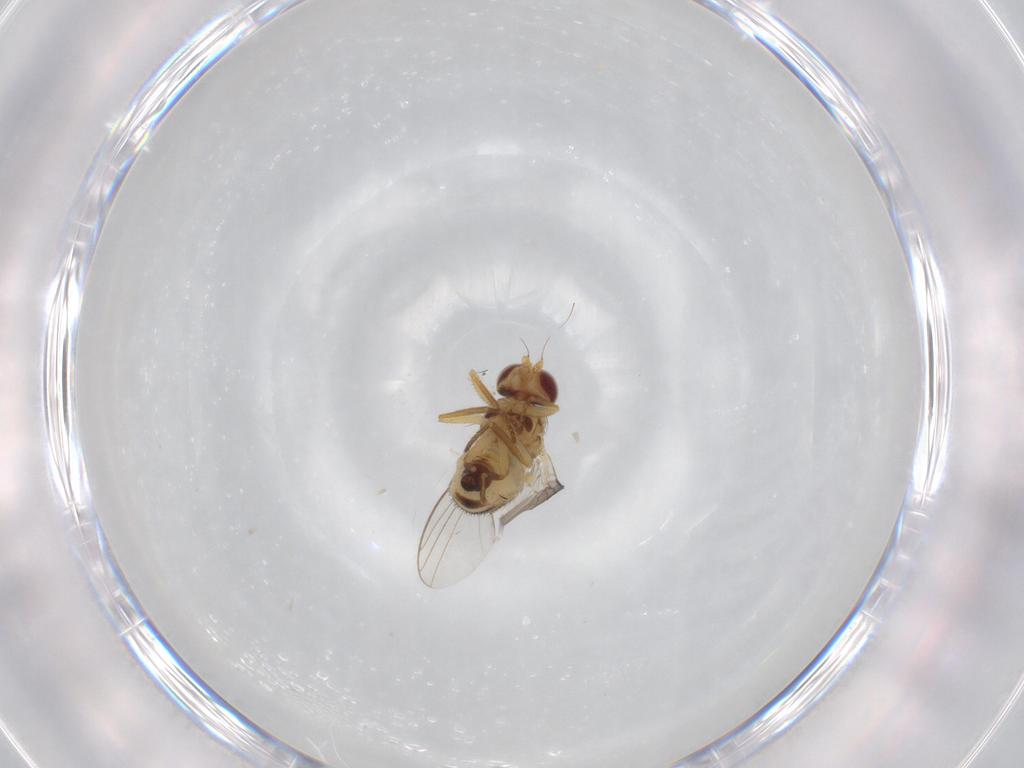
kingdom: Animalia
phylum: Arthropoda
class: Insecta
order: Diptera
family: Agromyzidae
